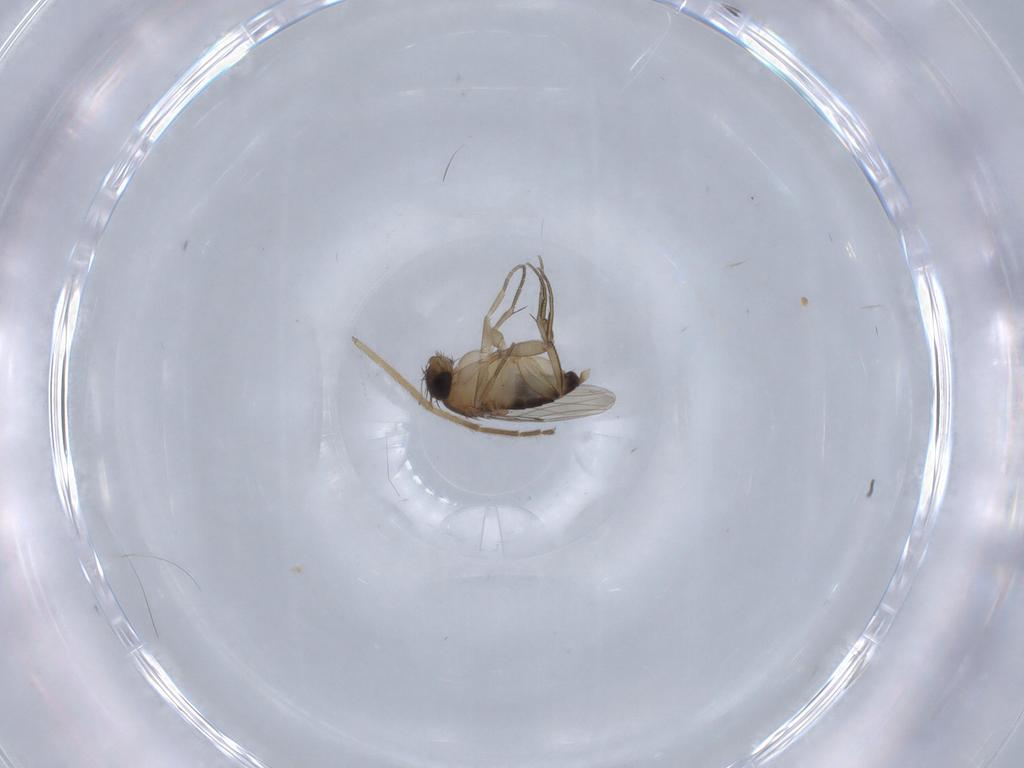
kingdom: Animalia
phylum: Arthropoda
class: Insecta
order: Diptera
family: Phoridae
